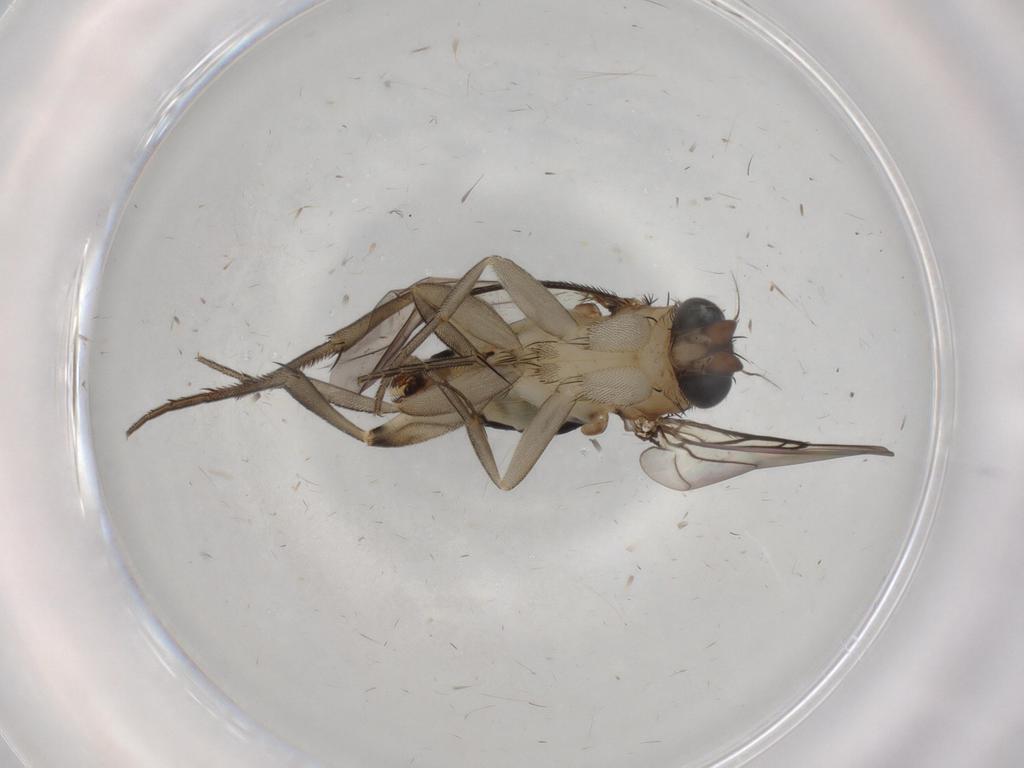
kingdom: Animalia
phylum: Arthropoda
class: Insecta
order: Diptera
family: Phoridae
